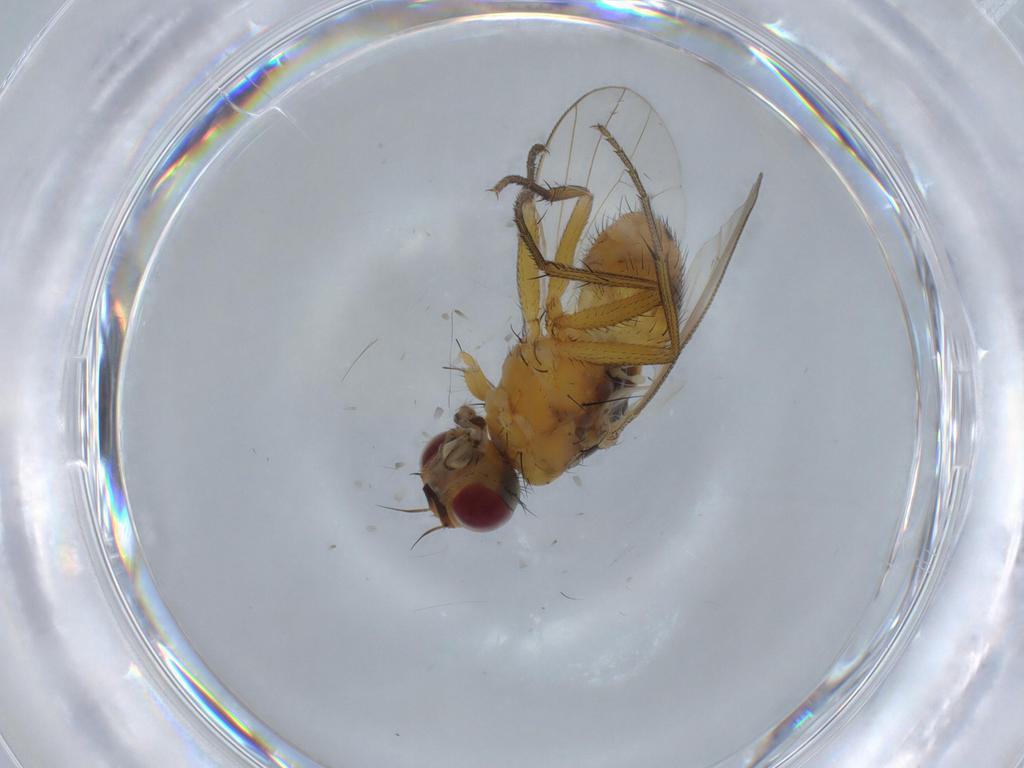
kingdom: Animalia
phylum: Arthropoda
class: Insecta
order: Diptera
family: Muscidae
